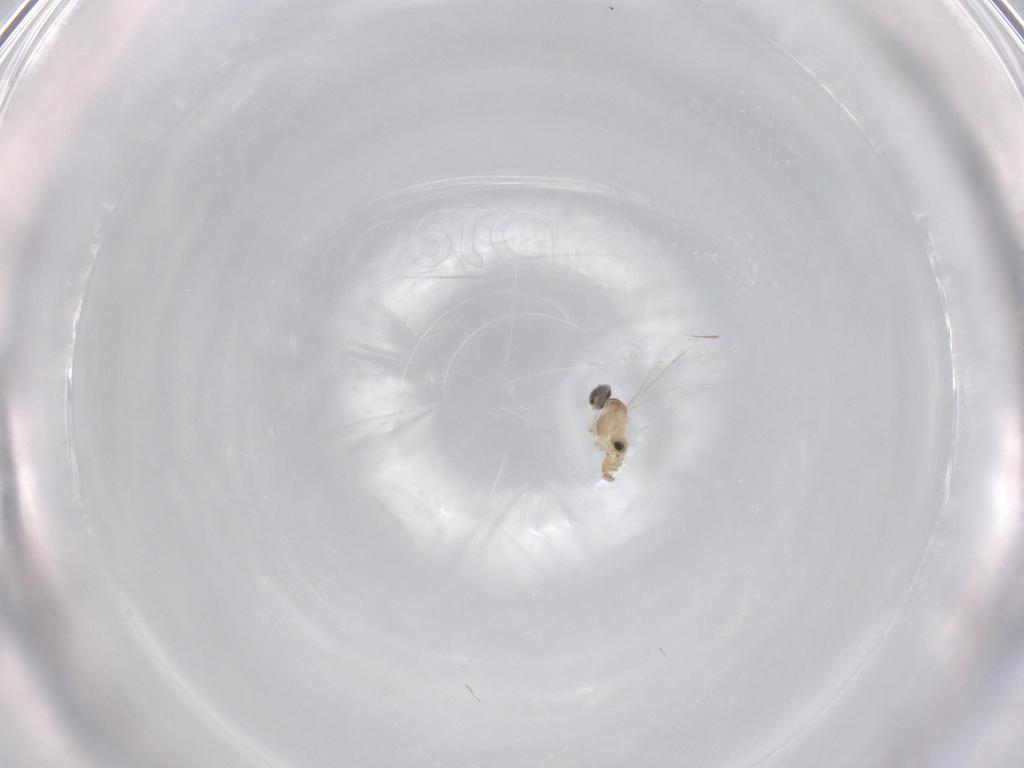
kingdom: Animalia
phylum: Arthropoda
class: Insecta
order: Diptera
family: Cecidomyiidae
